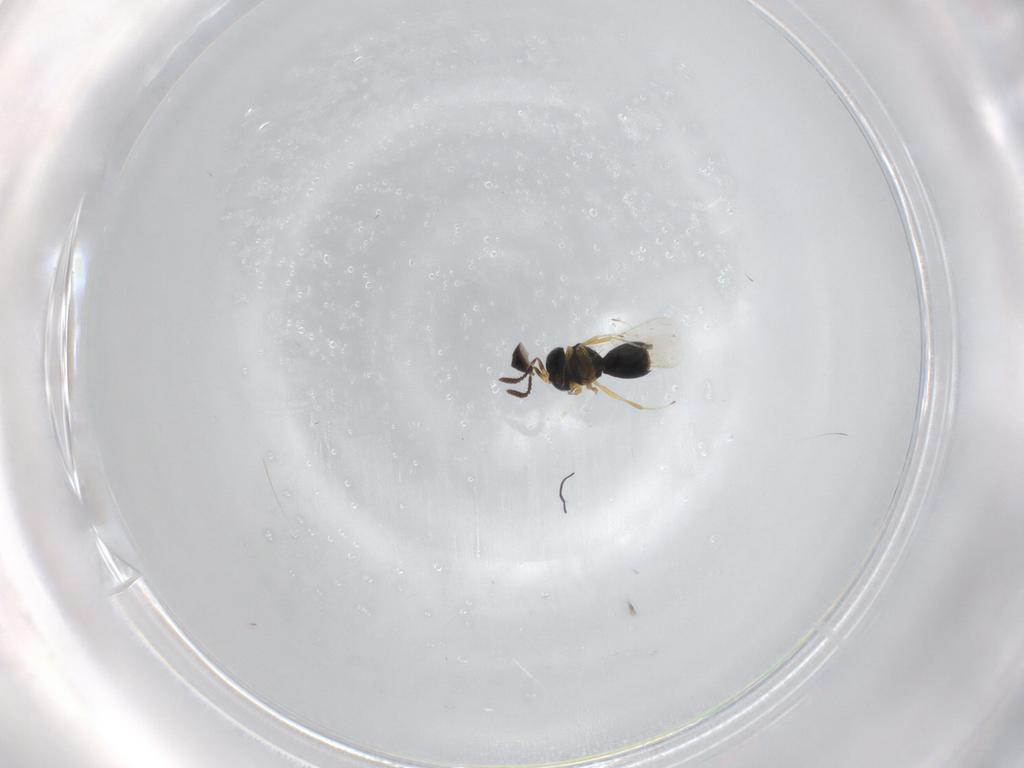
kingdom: Animalia
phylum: Arthropoda
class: Insecta
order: Hymenoptera
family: Scelionidae
